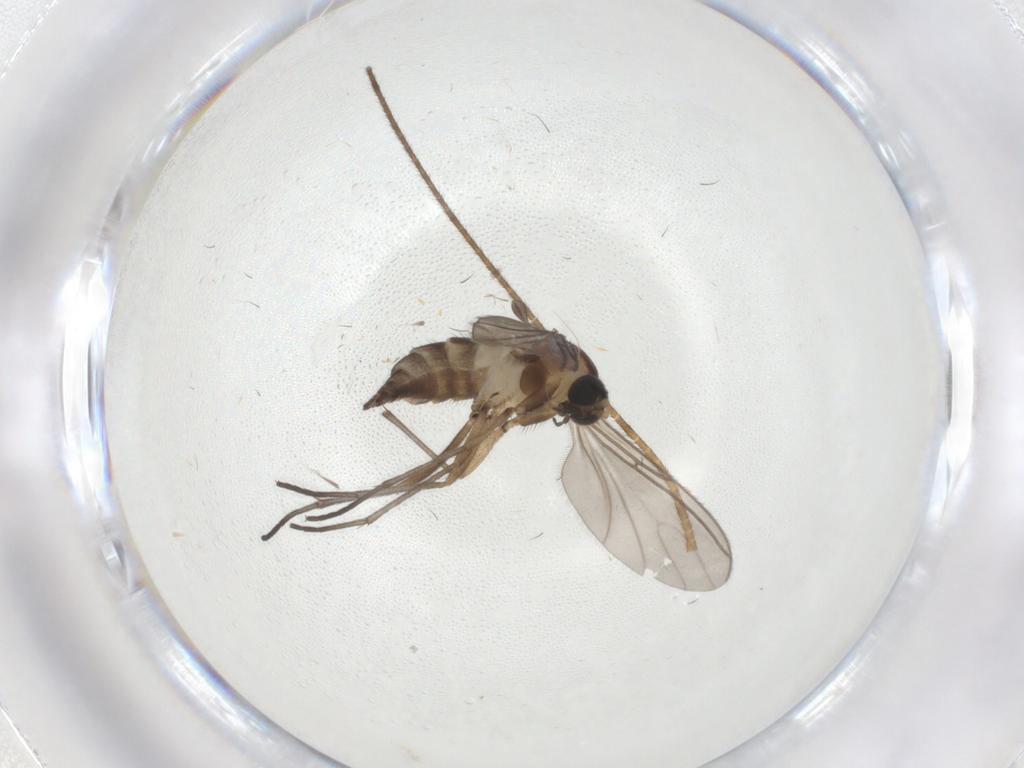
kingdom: Animalia
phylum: Arthropoda
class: Insecta
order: Diptera
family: Sciaridae
